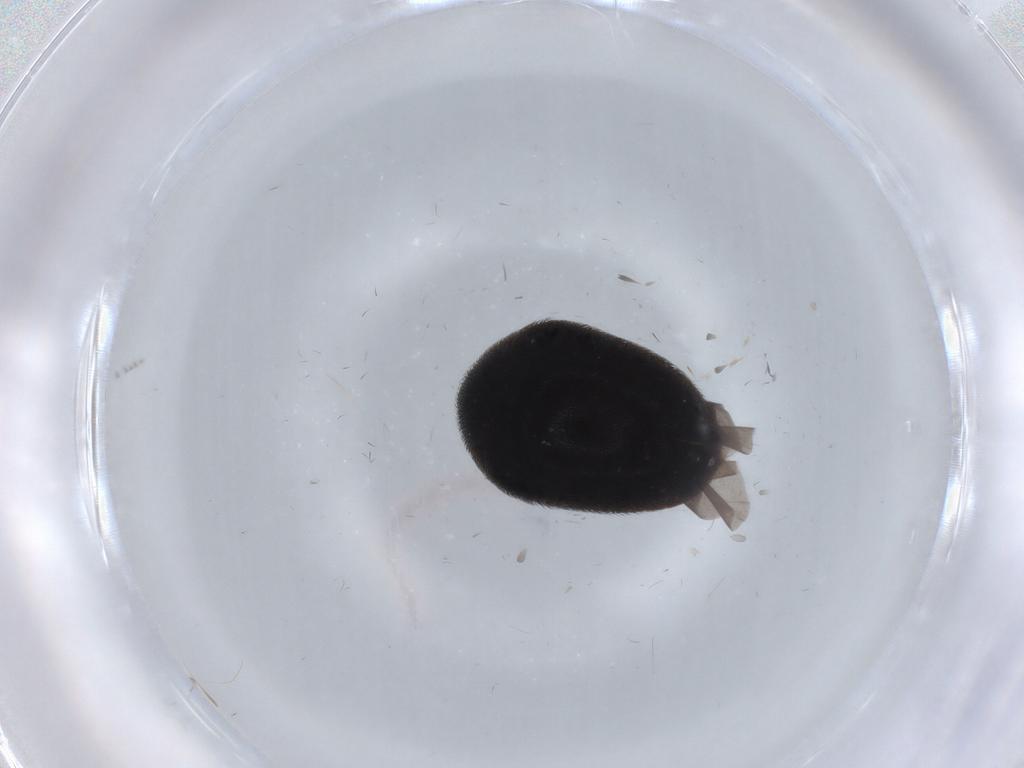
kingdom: Animalia
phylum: Arthropoda
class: Insecta
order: Coleoptera
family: Dermestidae
